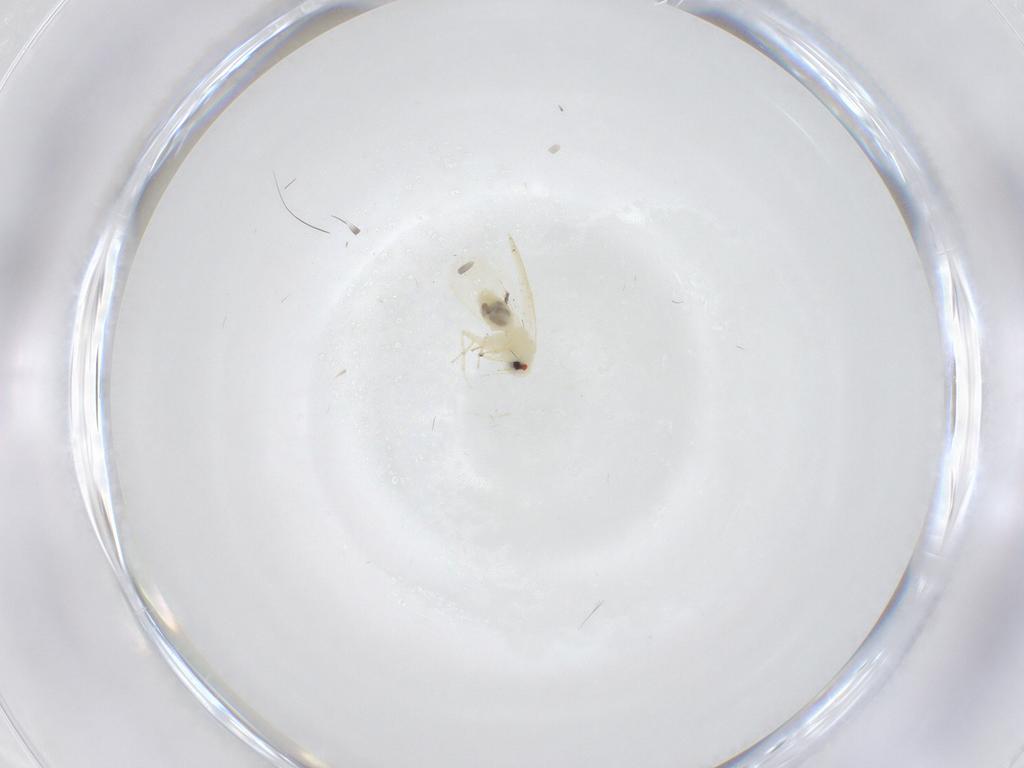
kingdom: Animalia
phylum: Arthropoda
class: Insecta
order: Hemiptera
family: Aleyrodidae
